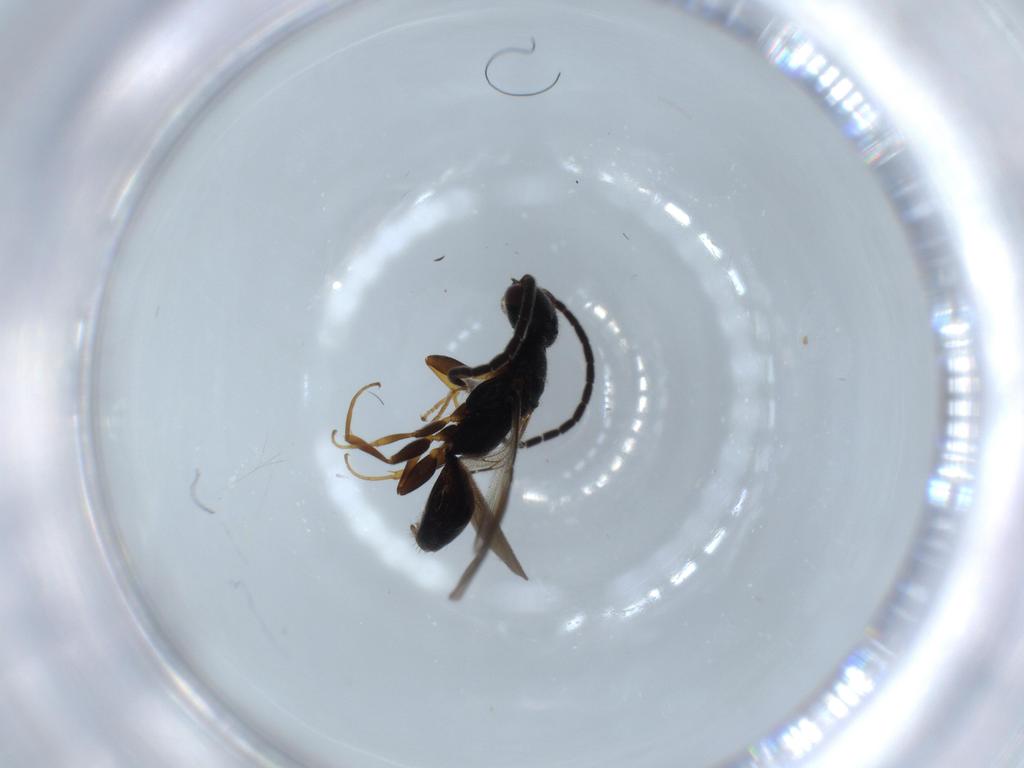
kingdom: Animalia
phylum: Arthropoda
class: Insecta
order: Hymenoptera
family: Bethylidae
